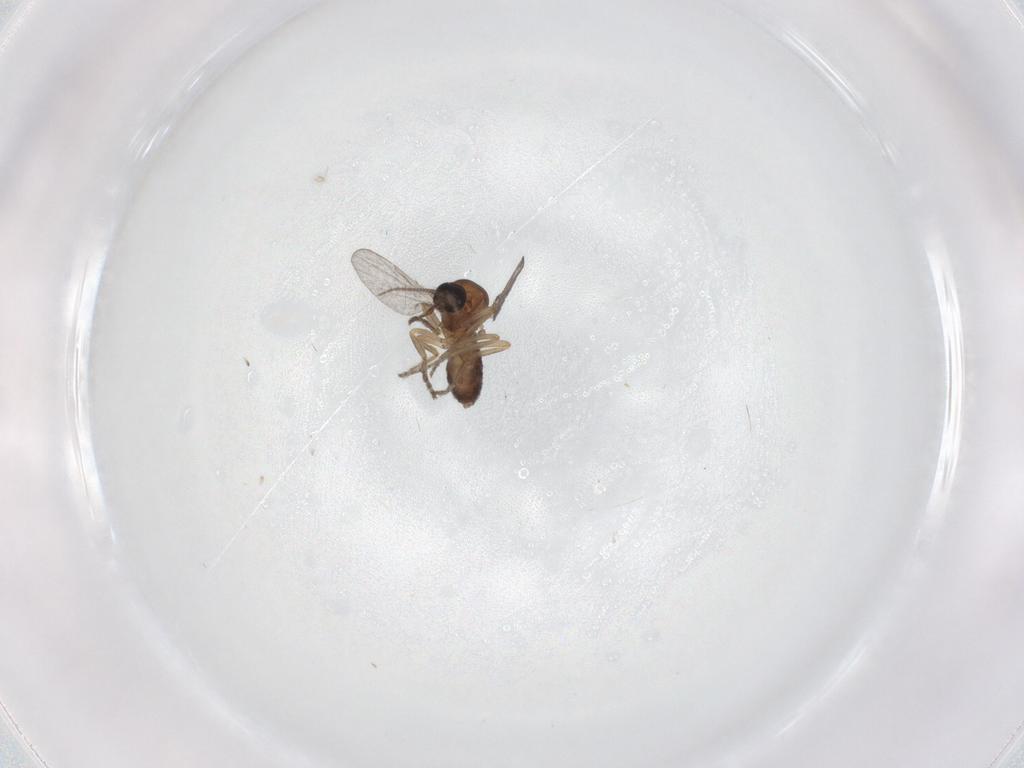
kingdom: Animalia
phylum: Arthropoda
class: Insecta
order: Diptera
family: Ceratopogonidae
